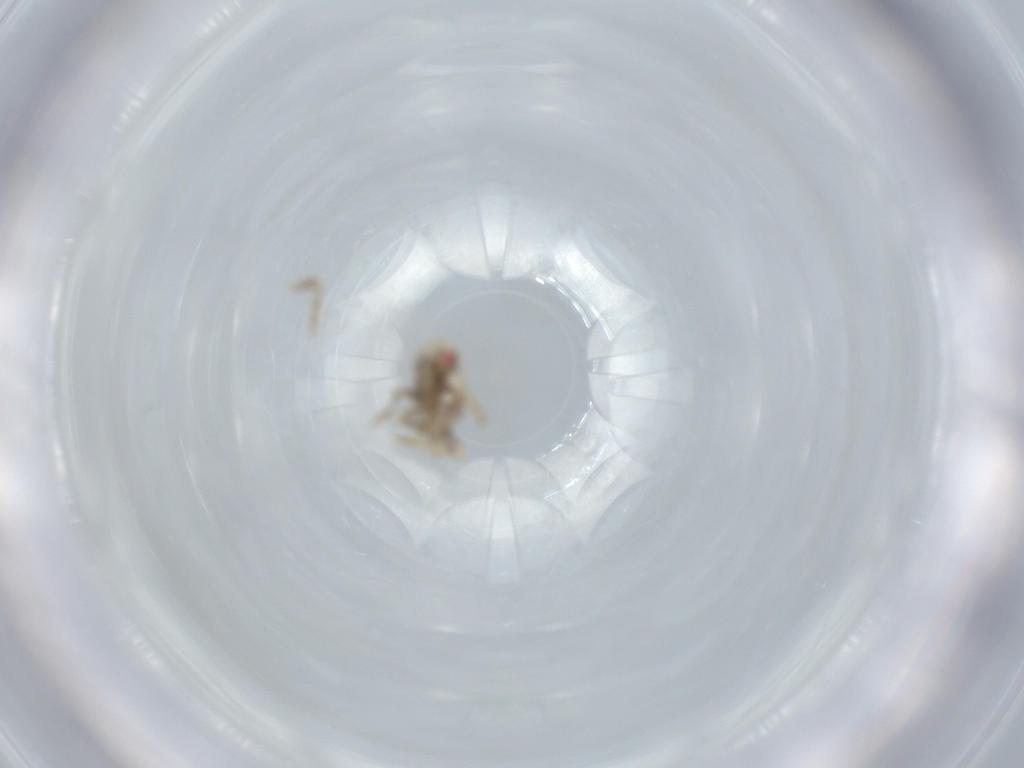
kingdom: Animalia
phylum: Arthropoda
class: Insecta
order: Hemiptera
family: Acanaloniidae
